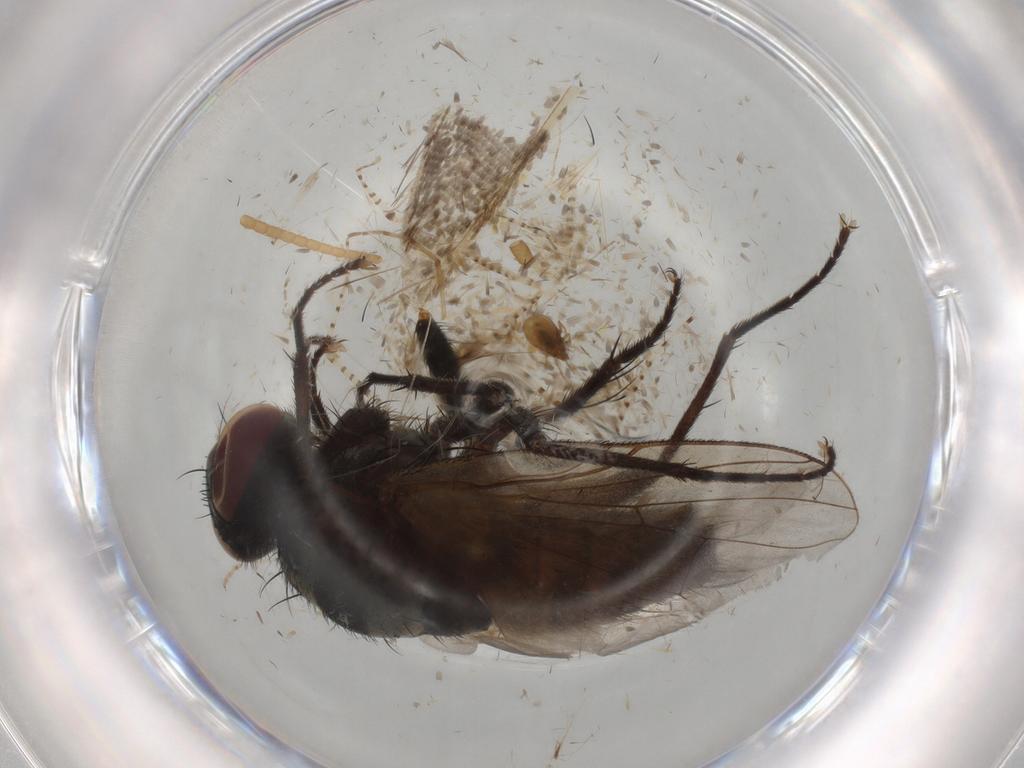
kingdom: Animalia
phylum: Arthropoda
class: Insecta
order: Diptera
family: Muscidae
